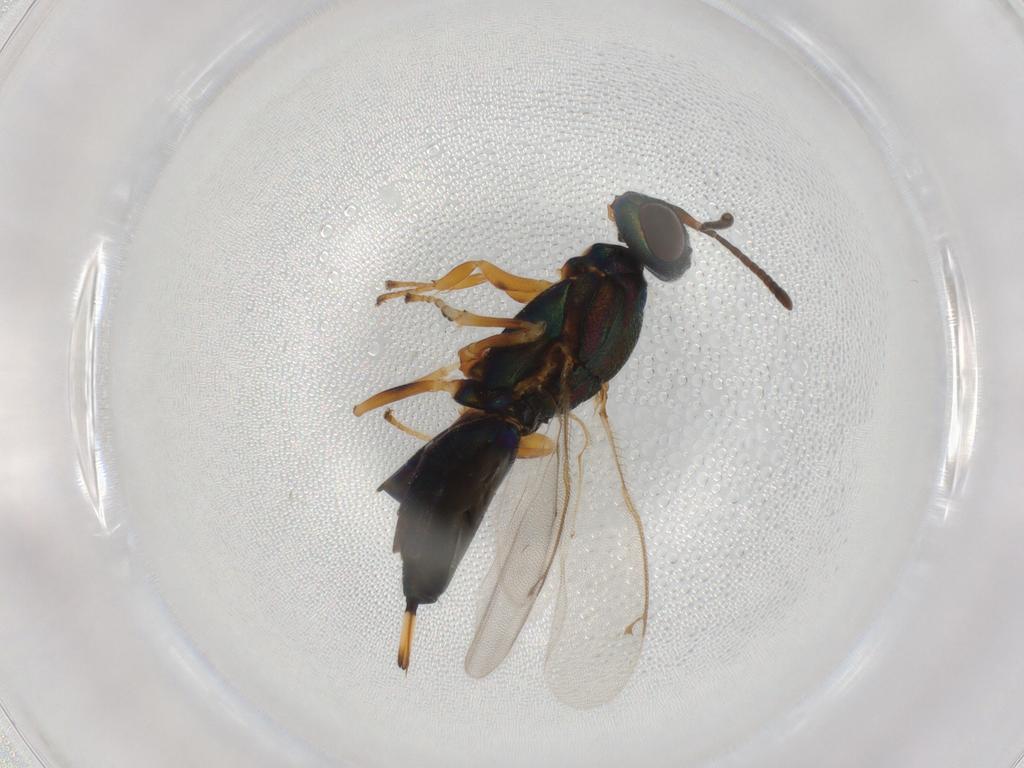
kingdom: Animalia
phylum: Arthropoda
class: Insecta
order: Hymenoptera
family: Eupelmidae
